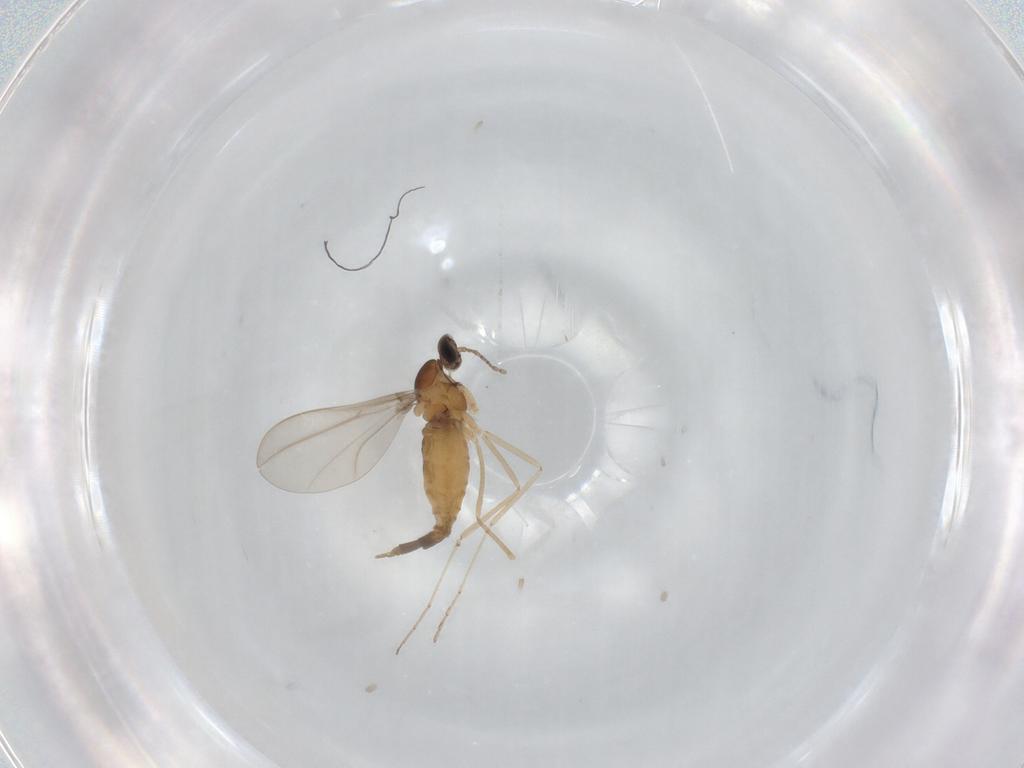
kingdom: Animalia
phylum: Arthropoda
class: Insecta
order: Diptera
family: Cecidomyiidae
